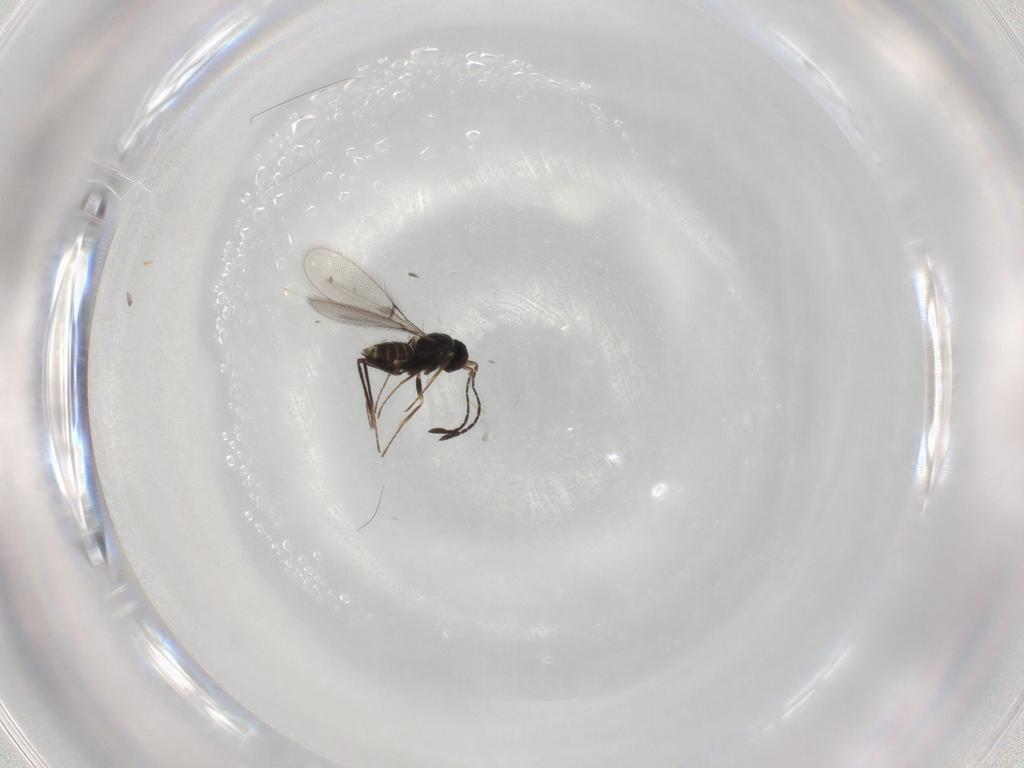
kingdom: Animalia
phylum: Arthropoda
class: Insecta
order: Hymenoptera
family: Mymaridae
